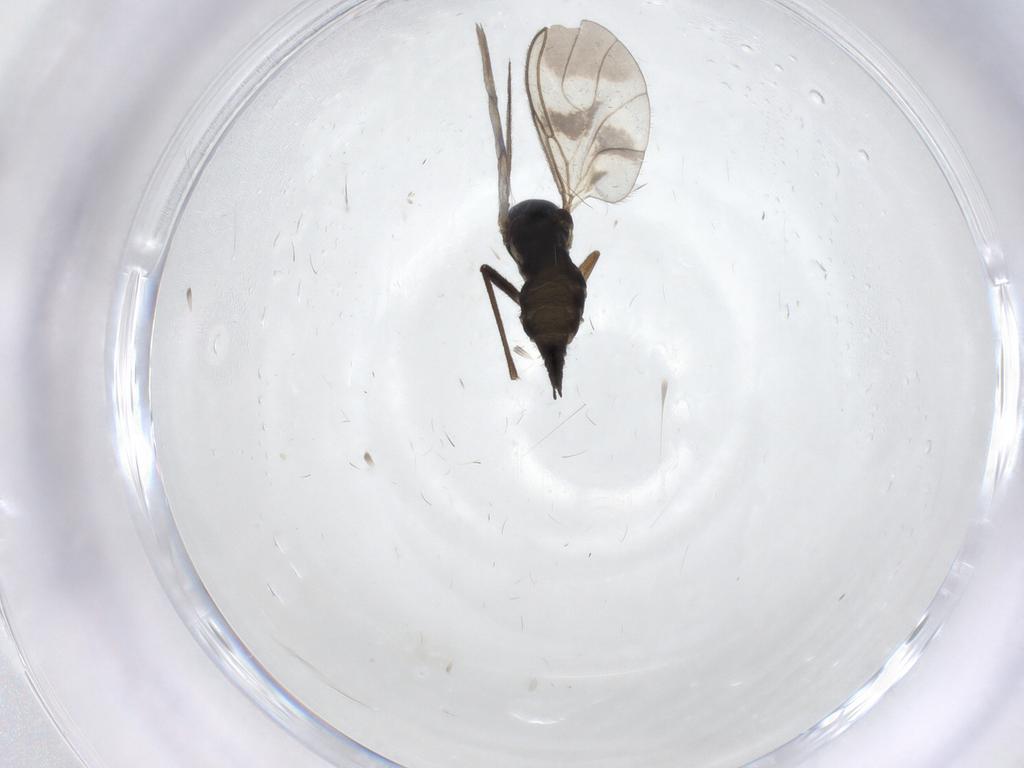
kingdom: Animalia
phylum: Arthropoda
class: Insecta
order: Diptera
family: Sciaridae
